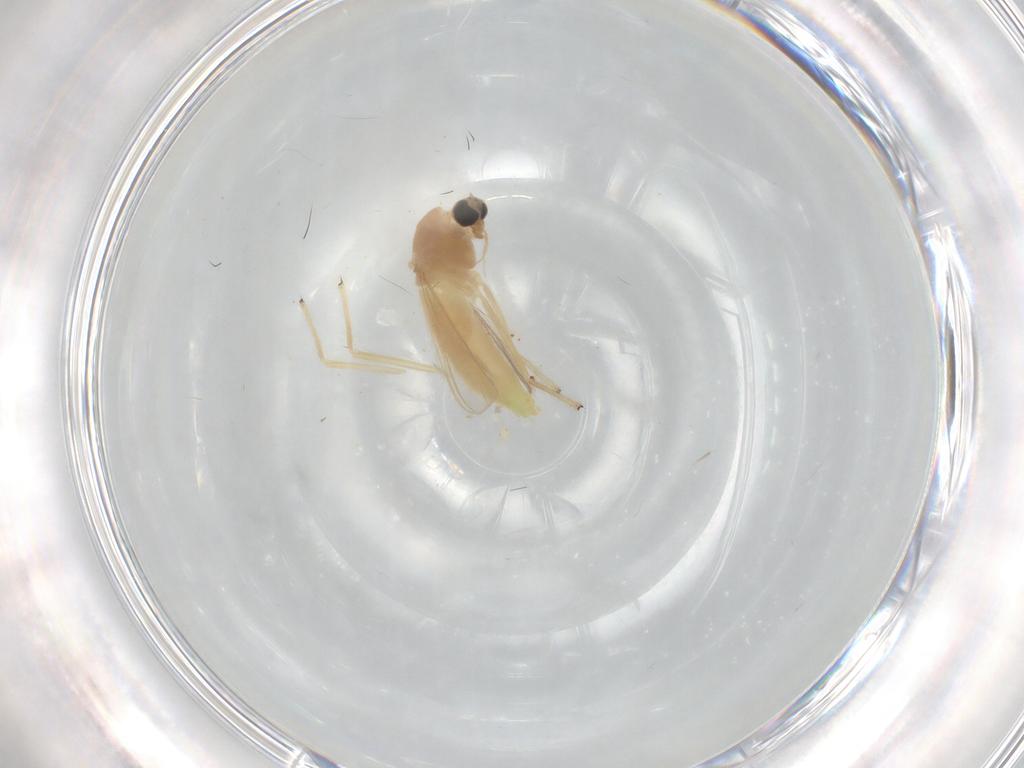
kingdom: Animalia
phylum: Arthropoda
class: Insecta
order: Diptera
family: Chironomidae
